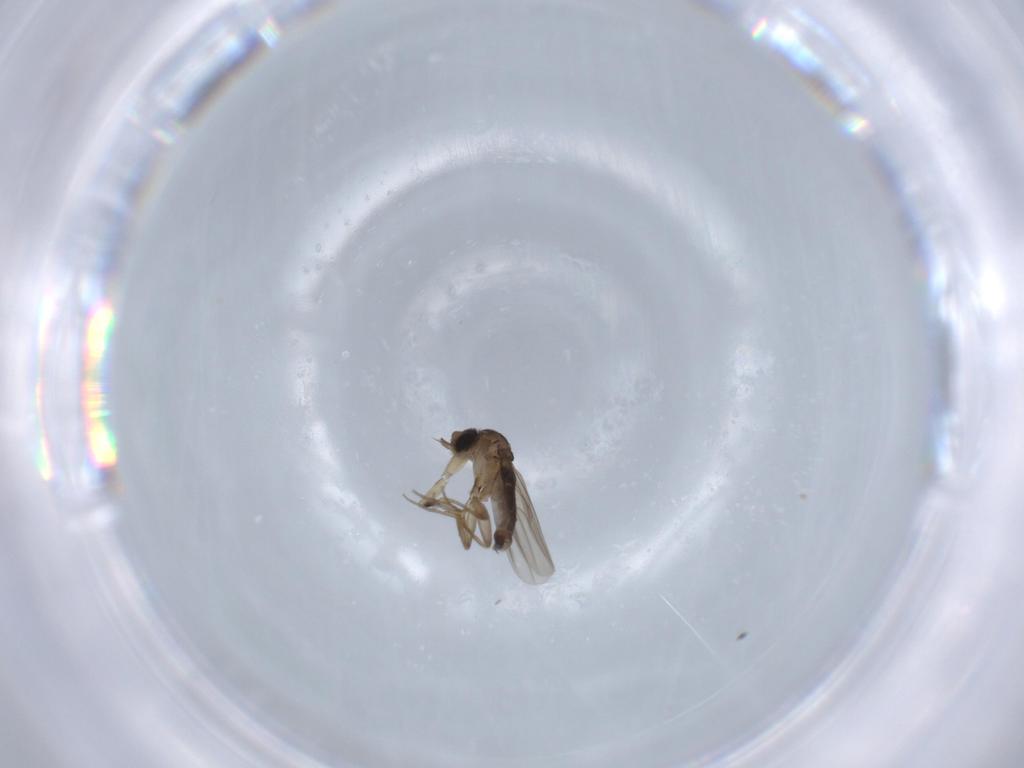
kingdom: Animalia
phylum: Arthropoda
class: Insecta
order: Diptera
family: Phoridae
